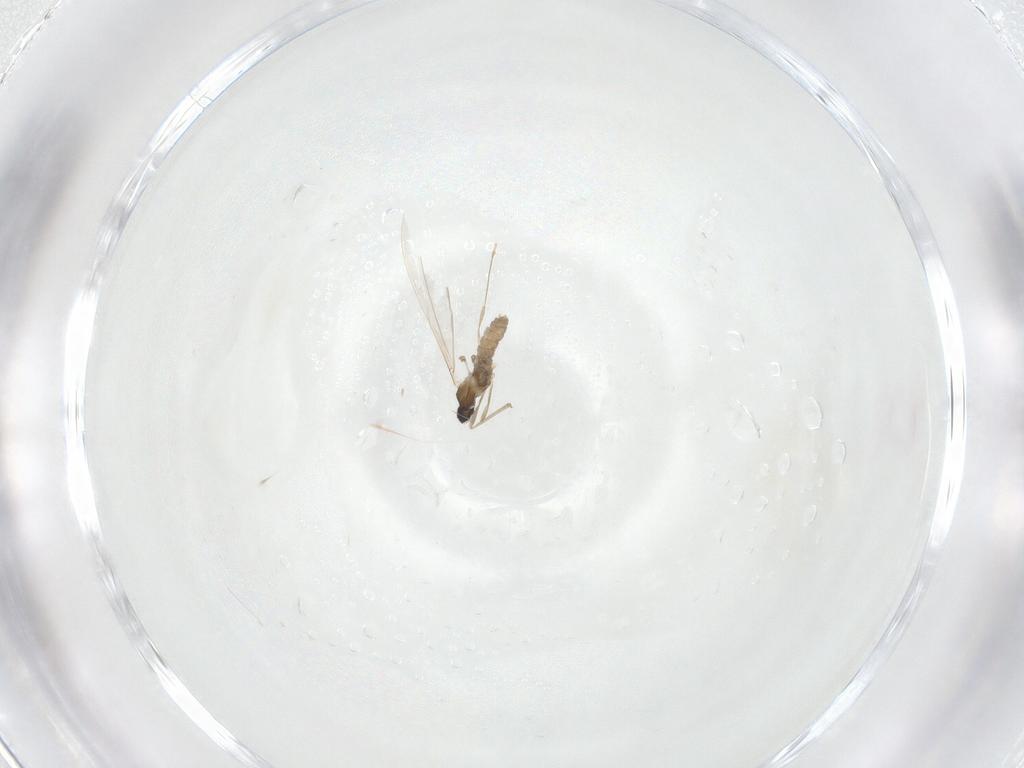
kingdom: Animalia
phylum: Arthropoda
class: Insecta
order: Diptera
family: Cecidomyiidae
